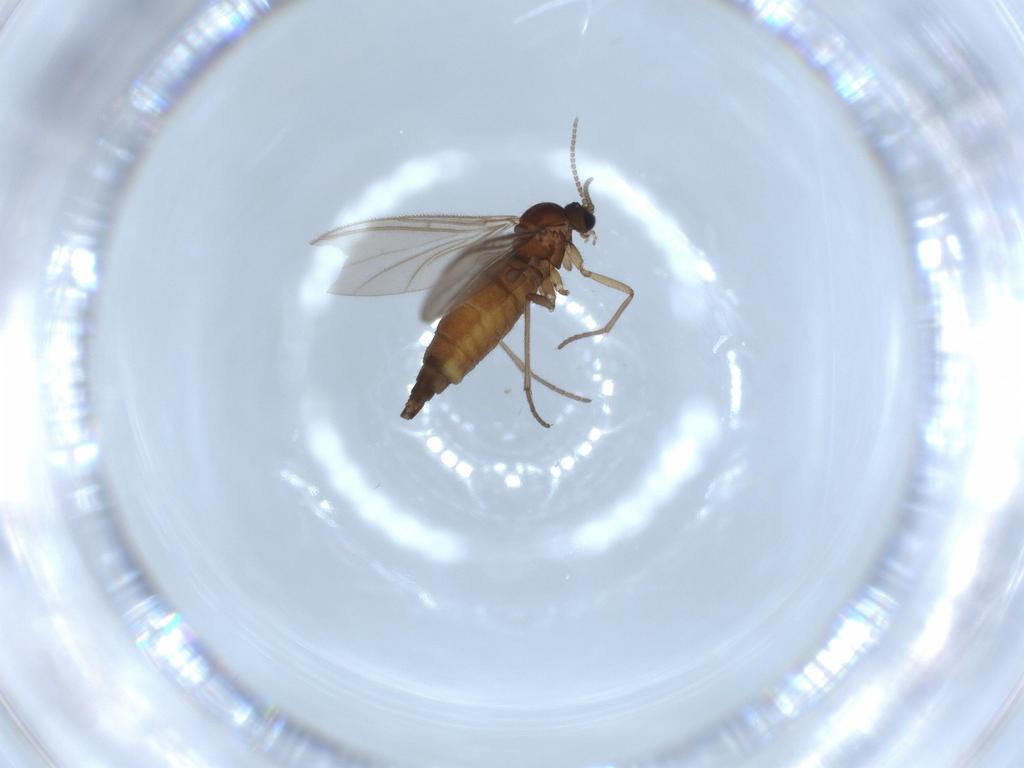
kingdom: Animalia
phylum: Arthropoda
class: Insecta
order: Diptera
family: Sciaridae
